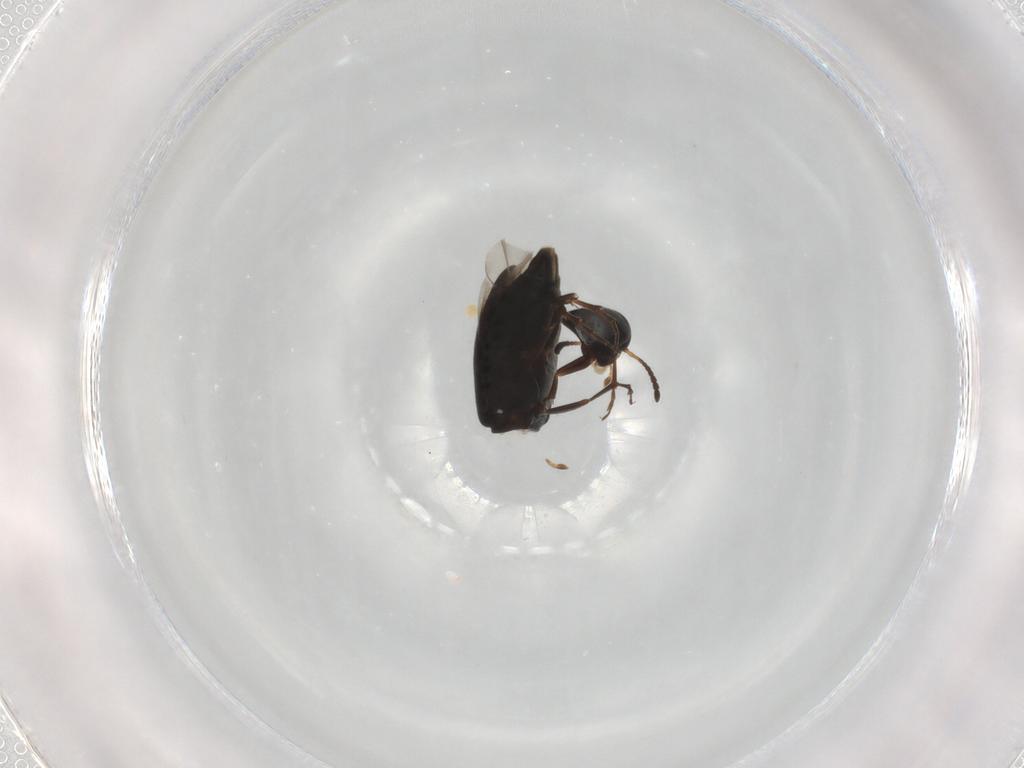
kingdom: Animalia
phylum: Arthropoda
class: Insecta
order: Coleoptera
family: Scraptiidae
